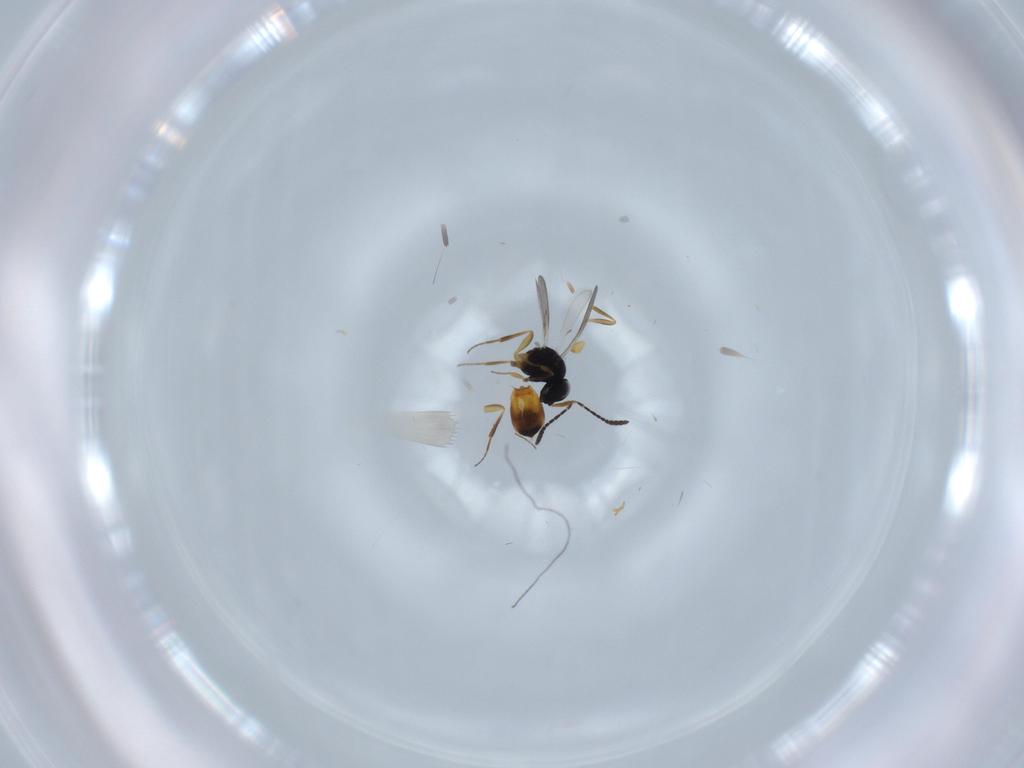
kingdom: Animalia
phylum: Arthropoda
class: Insecta
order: Hymenoptera
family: Scelionidae
